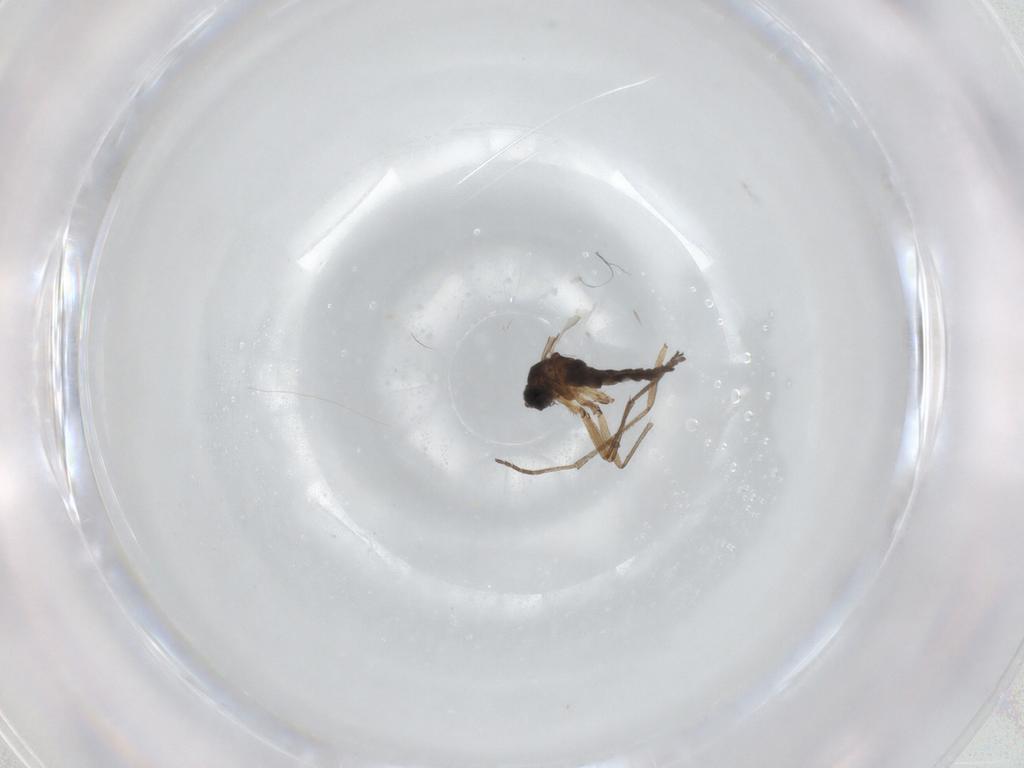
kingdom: Animalia
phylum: Arthropoda
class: Insecta
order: Diptera
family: Sciaridae
